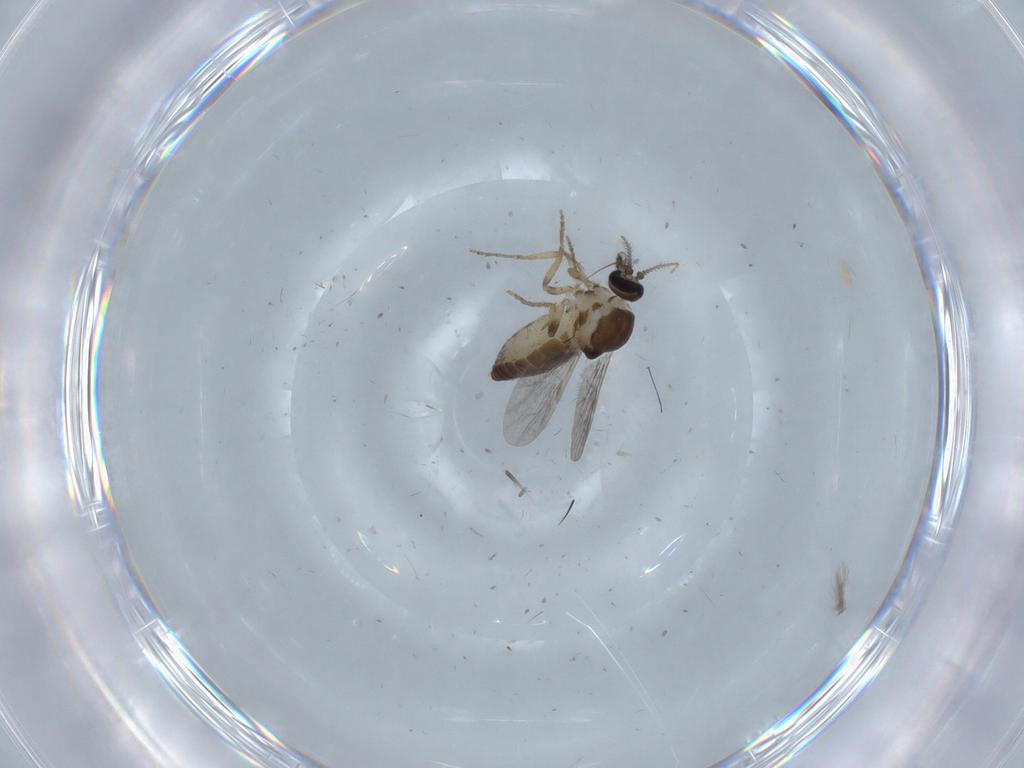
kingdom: Animalia
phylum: Arthropoda
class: Insecta
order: Diptera
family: Ceratopogonidae
